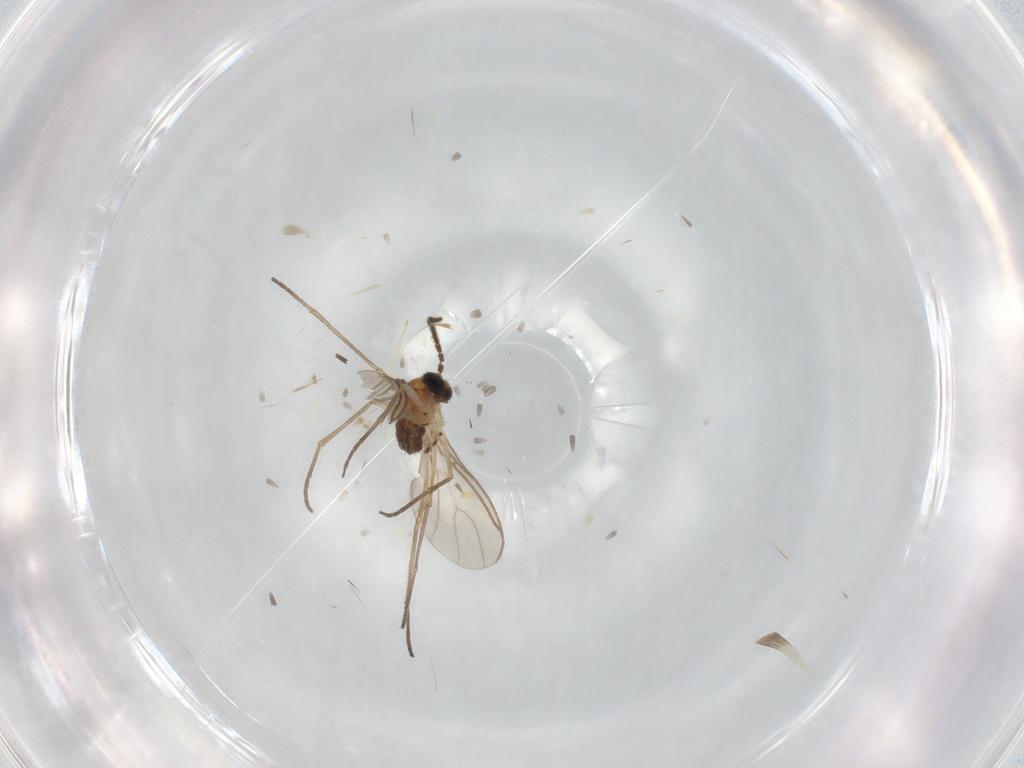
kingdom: Animalia
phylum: Arthropoda
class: Insecta
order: Diptera
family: Sciaridae
